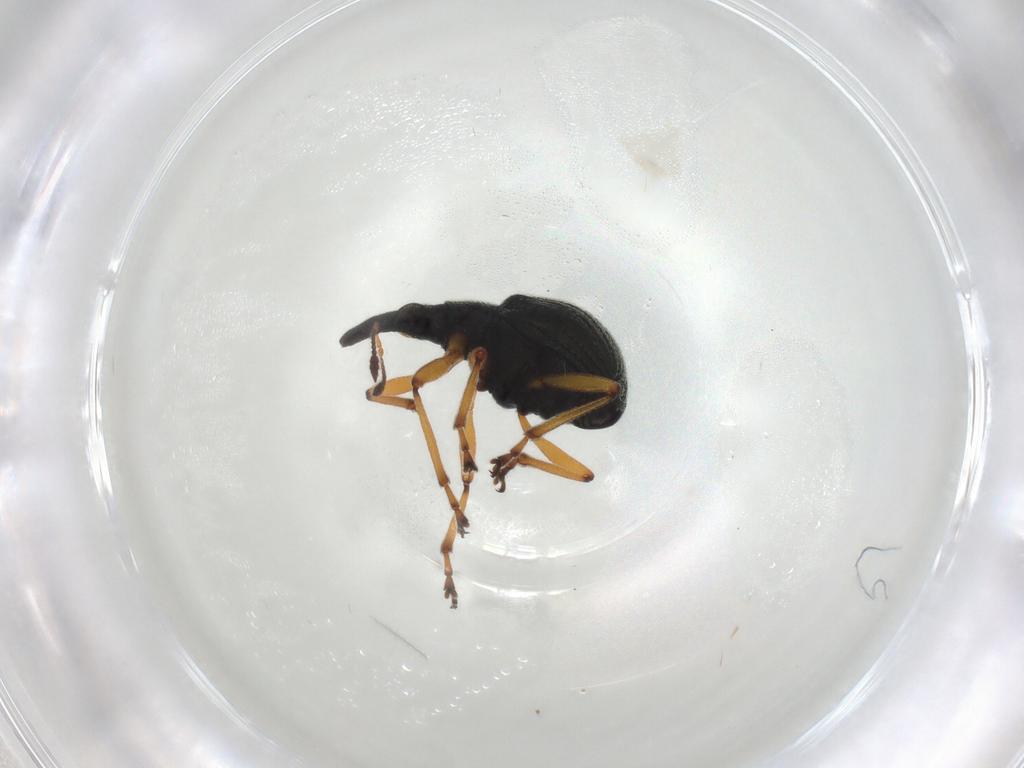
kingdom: Animalia
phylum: Arthropoda
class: Insecta
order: Coleoptera
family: Brentidae
